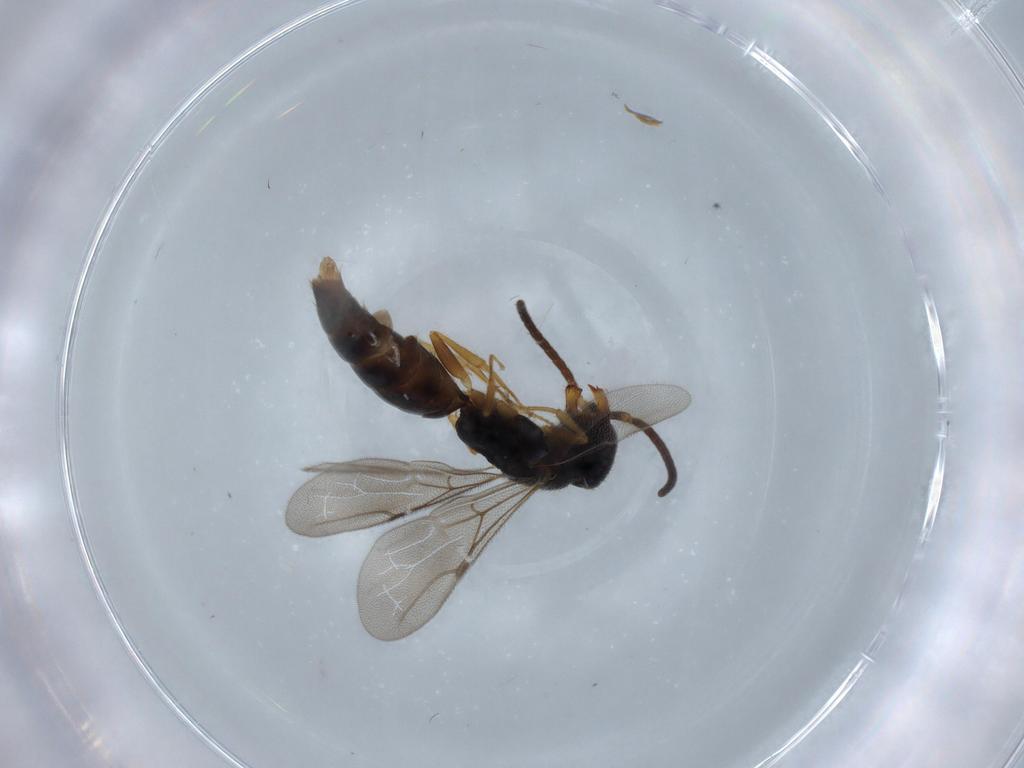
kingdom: Animalia
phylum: Arthropoda
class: Insecta
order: Hymenoptera
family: Bethylidae
